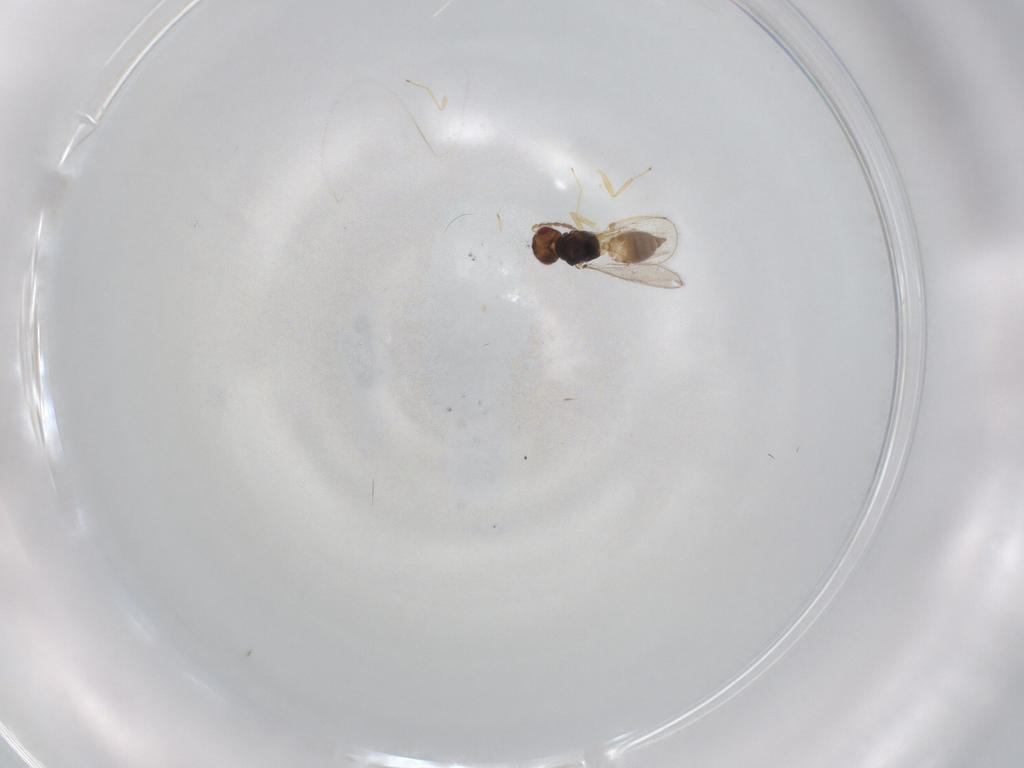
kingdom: Animalia
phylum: Arthropoda
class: Insecta
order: Hymenoptera
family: Eulophidae
